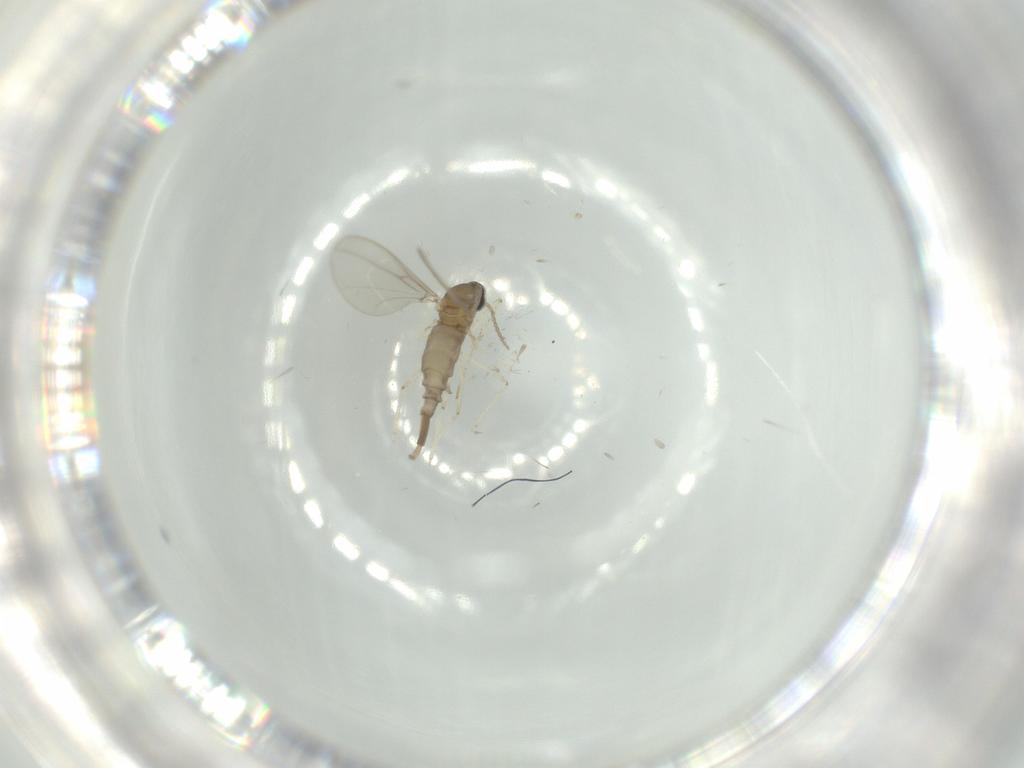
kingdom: Animalia
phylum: Arthropoda
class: Insecta
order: Diptera
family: Cecidomyiidae
